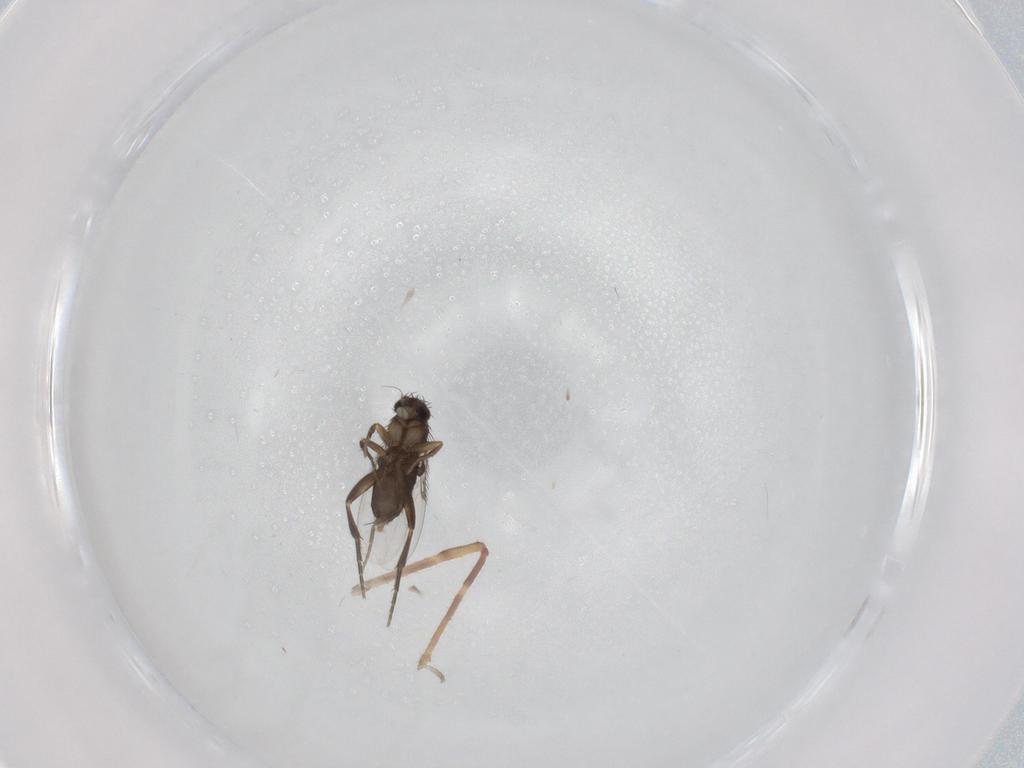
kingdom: Animalia
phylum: Arthropoda
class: Insecta
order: Diptera
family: Phoridae
